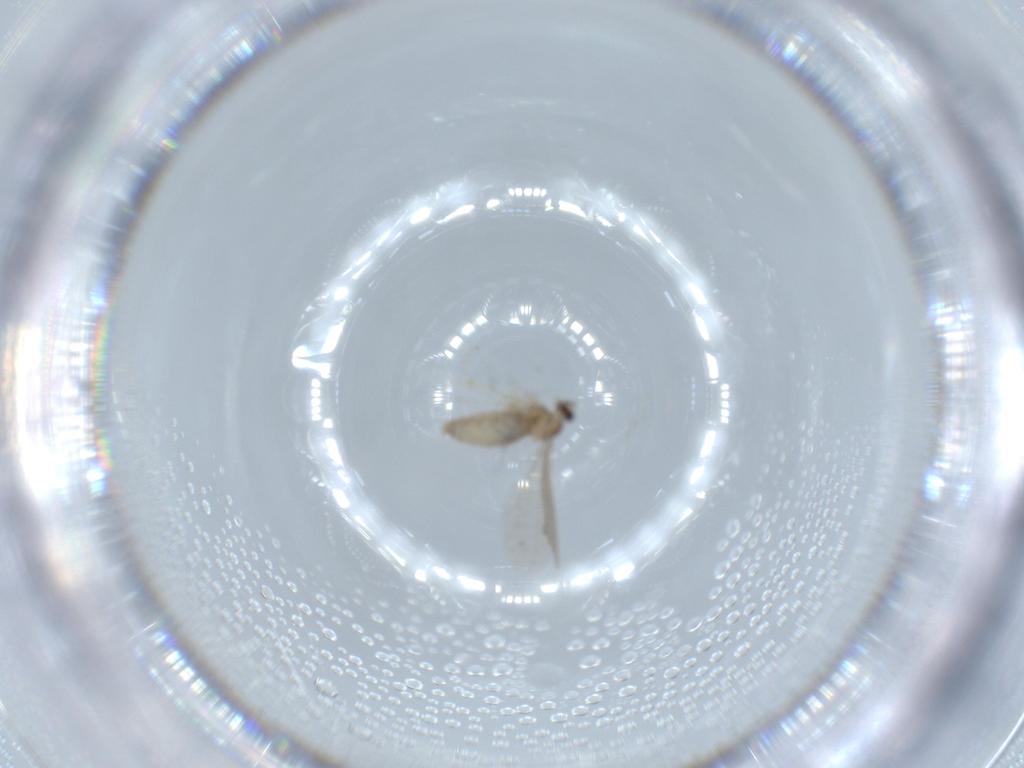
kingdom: Animalia
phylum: Arthropoda
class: Insecta
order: Diptera
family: Cecidomyiidae
